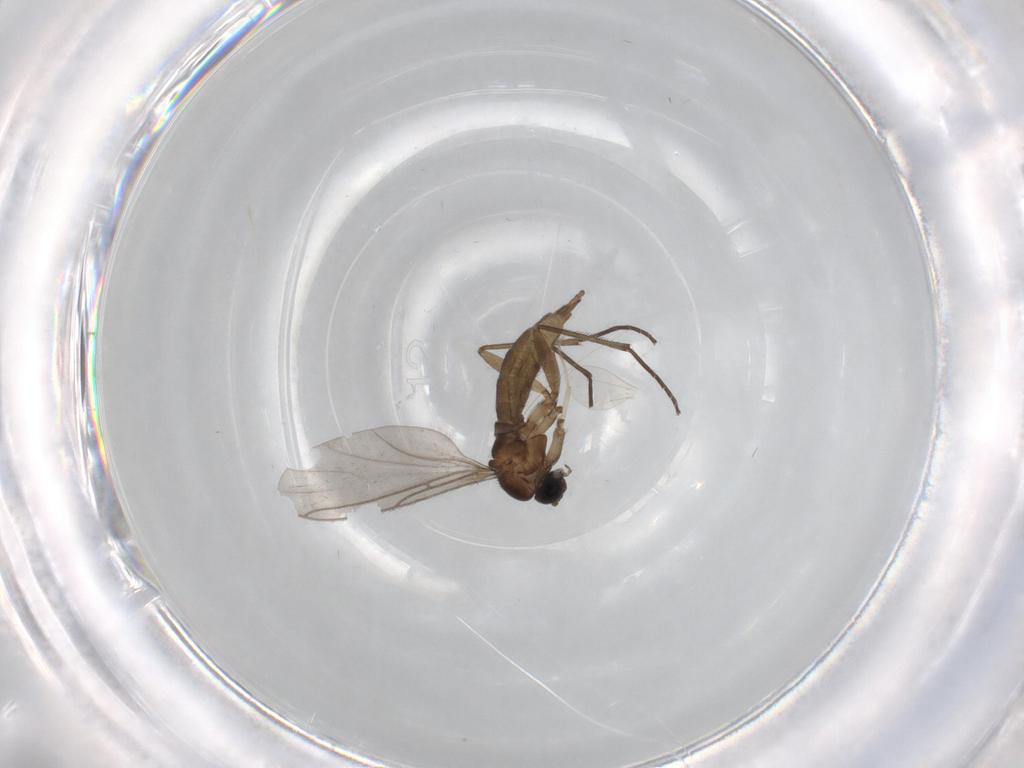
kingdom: Animalia
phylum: Arthropoda
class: Insecta
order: Diptera
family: Sciaridae
